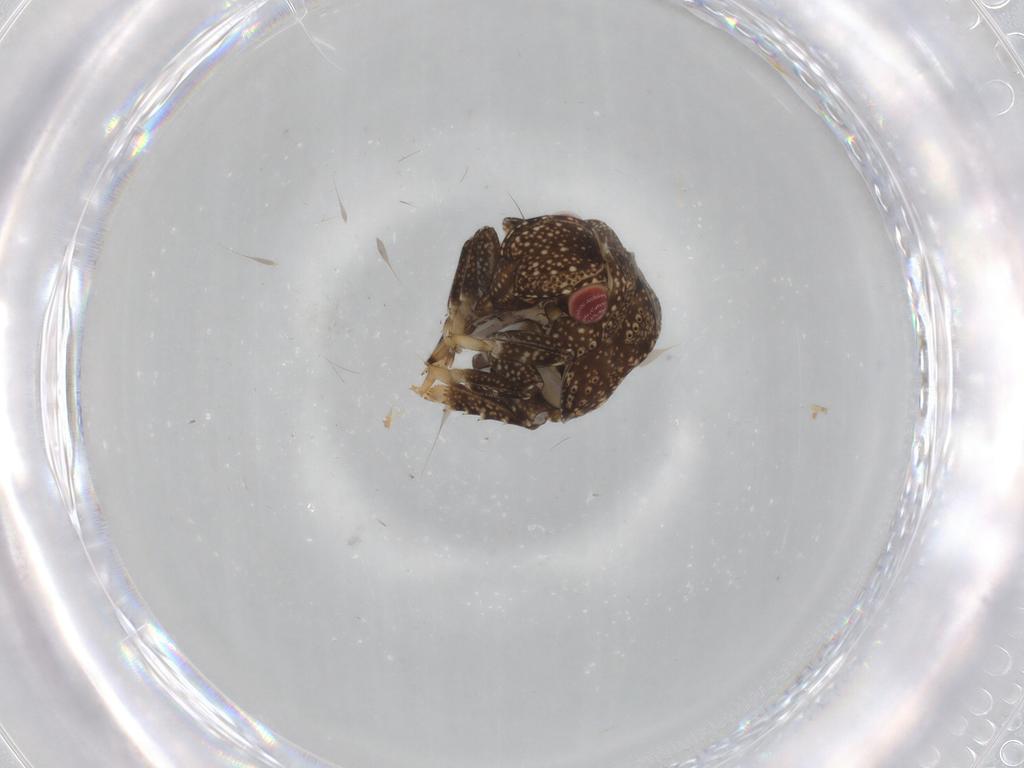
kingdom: Animalia
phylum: Arthropoda
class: Insecta
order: Hemiptera
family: Acanaloniidae
